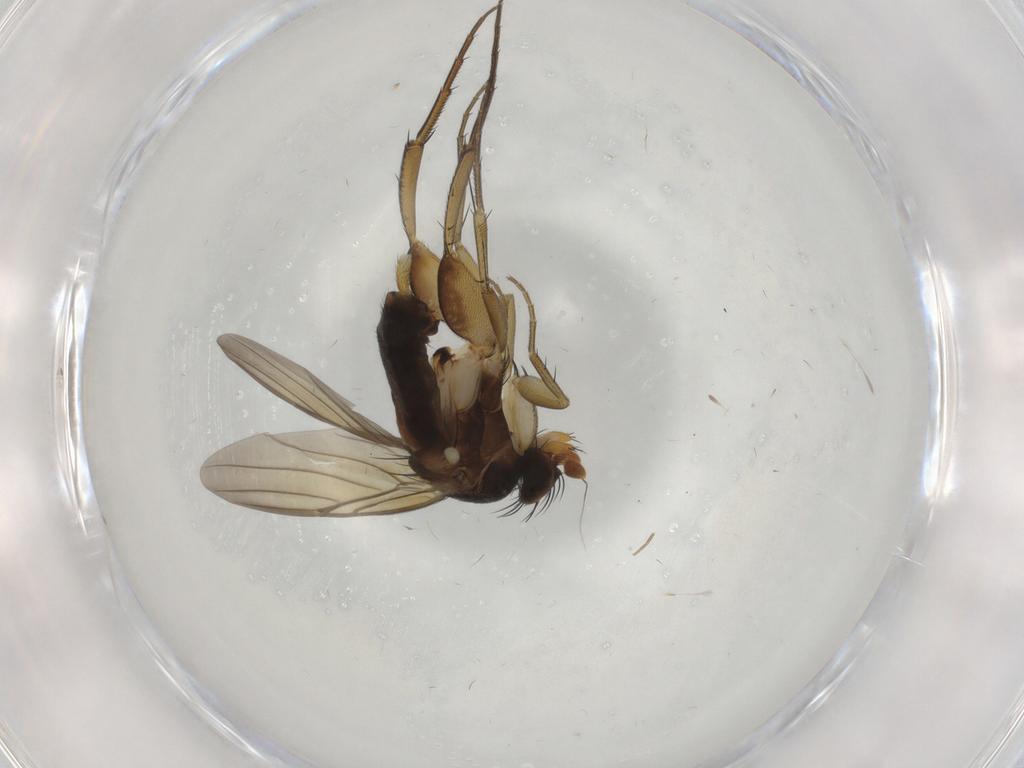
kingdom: Animalia
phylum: Arthropoda
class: Insecta
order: Diptera
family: Phoridae
